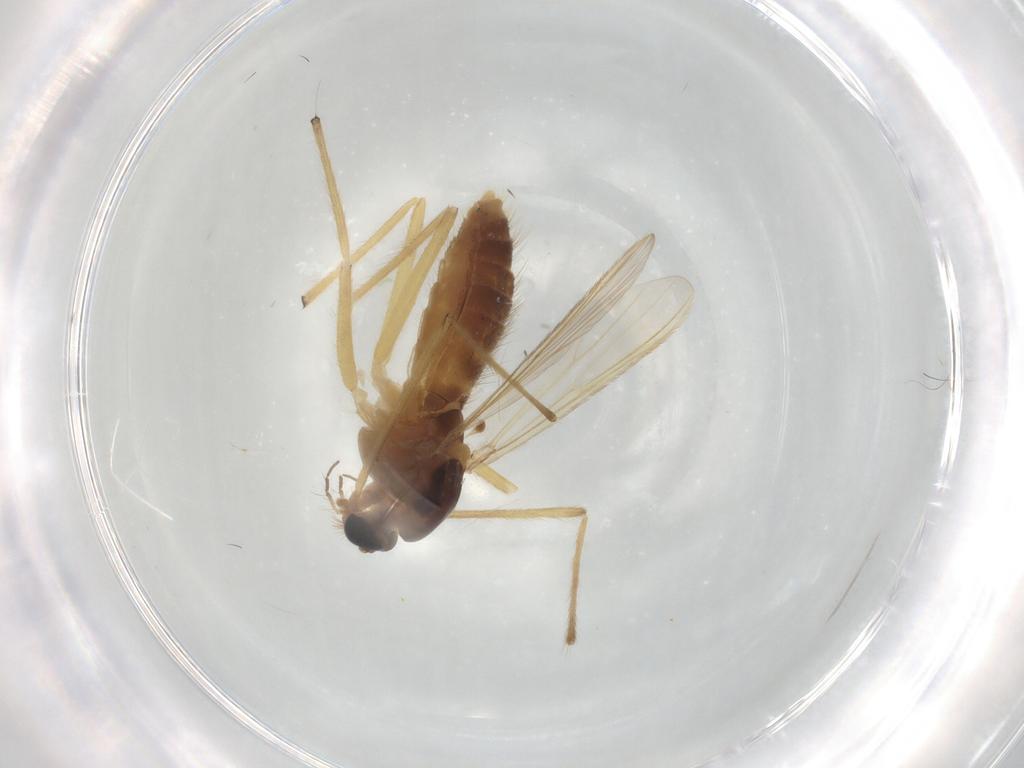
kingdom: Animalia
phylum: Arthropoda
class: Insecta
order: Diptera
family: Chironomidae
